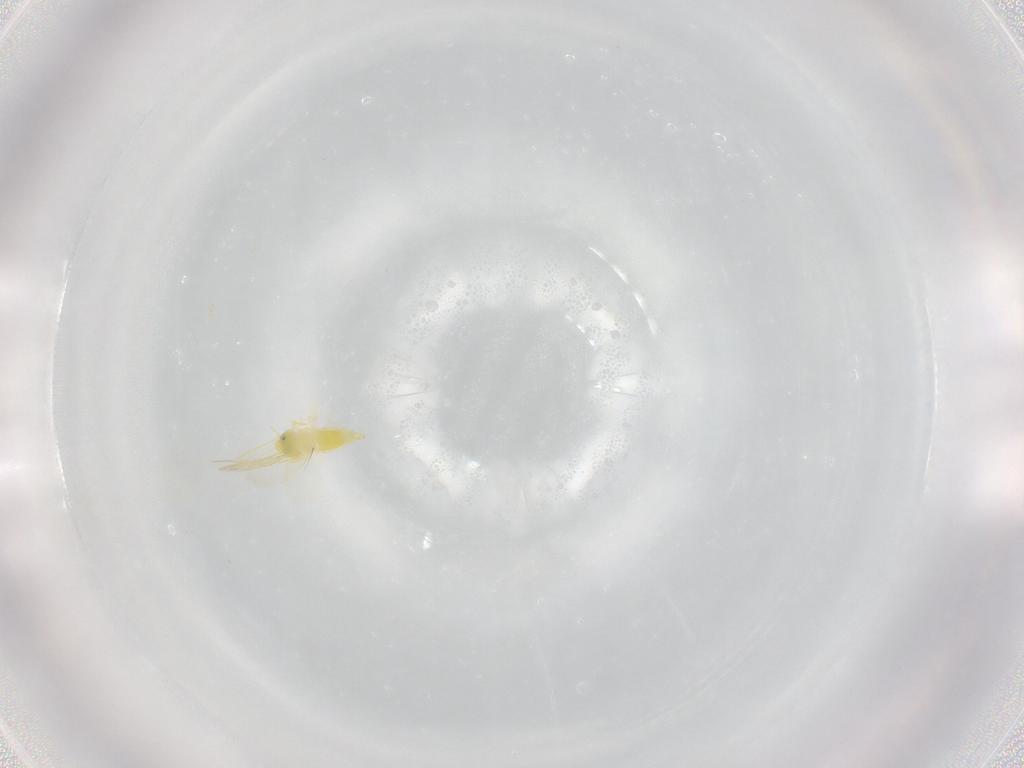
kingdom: Animalia
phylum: Arthropoda
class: Insecta
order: Hemiptera
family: Aleyrodidae
